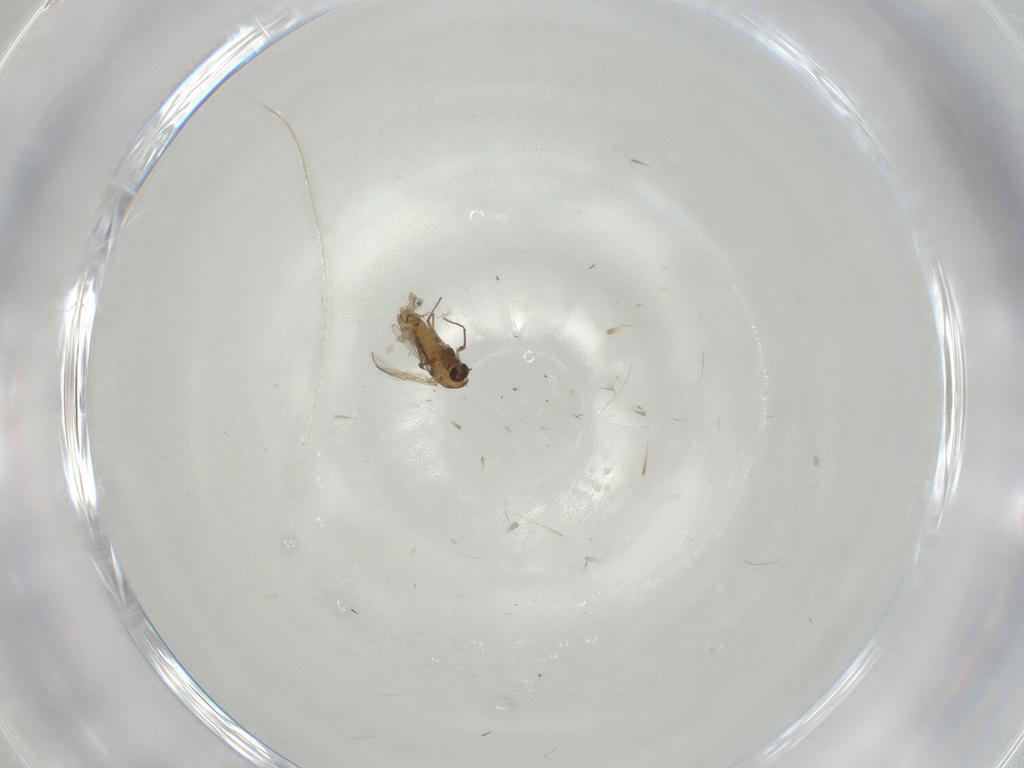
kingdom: Animalia
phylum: Arthropoda
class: Insecta
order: Diptera
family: Chironomidae
